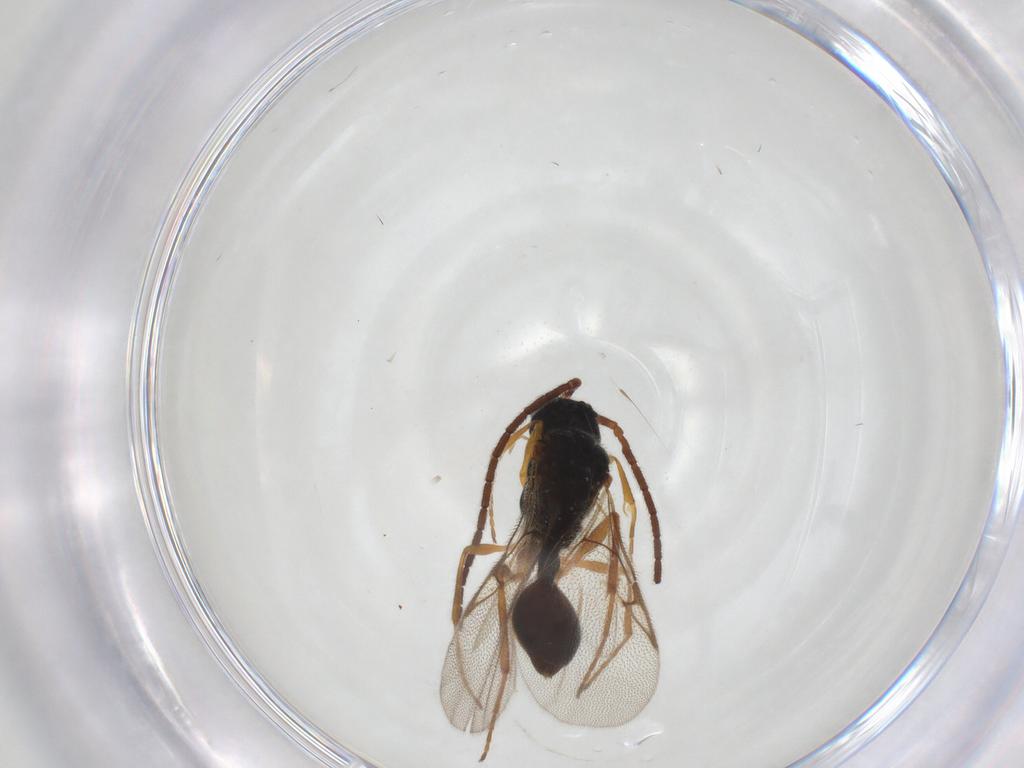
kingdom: Animalia
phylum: Arthropoda
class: Insecta
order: Hymenoptera
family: Diapriidae
